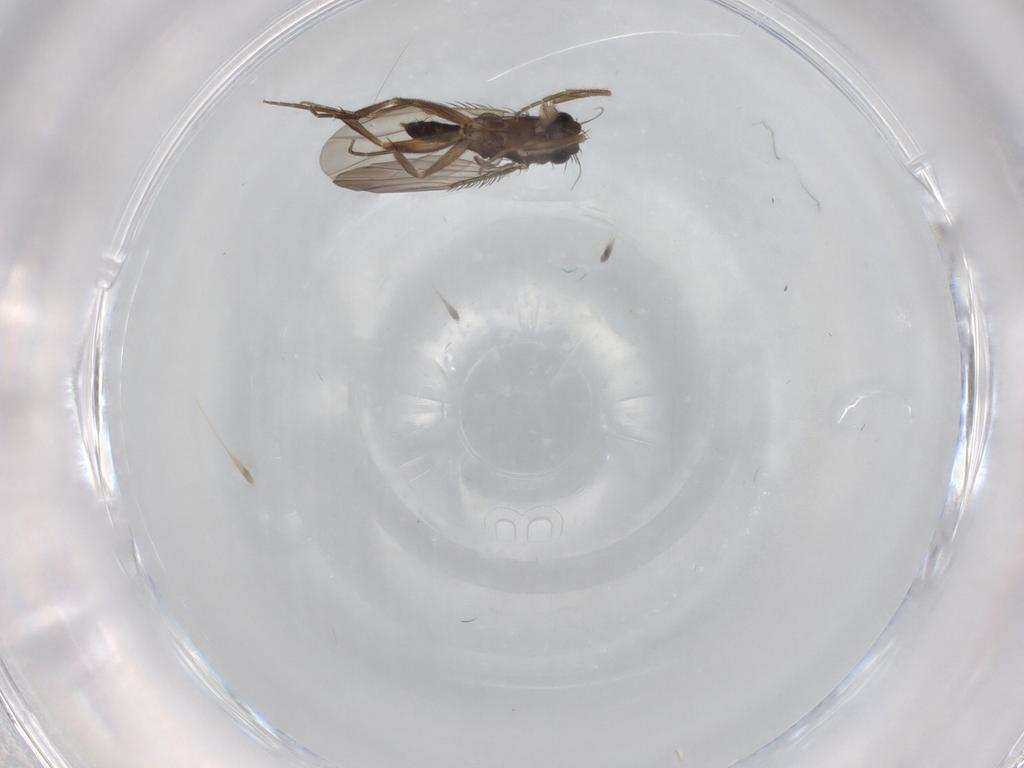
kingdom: Animalia
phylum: Arthropoda
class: Insecta
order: Diptera
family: Phoridae
